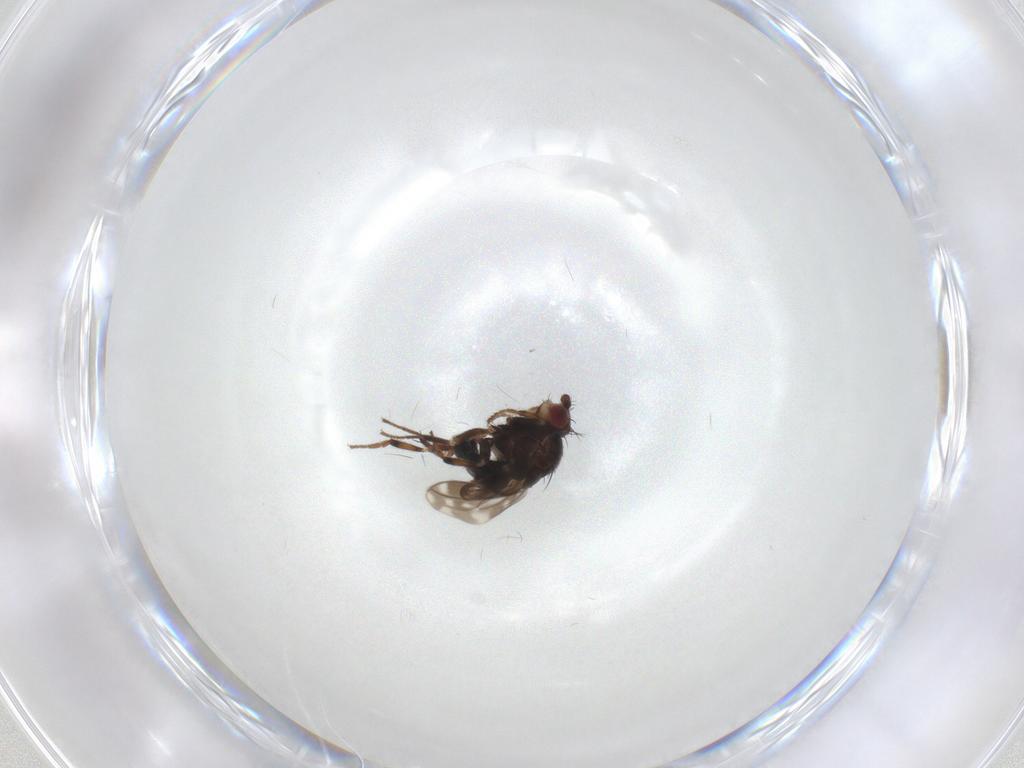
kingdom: Animalia
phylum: Arthropoda
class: Insecta
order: Diptera
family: Sphaeroceridae
